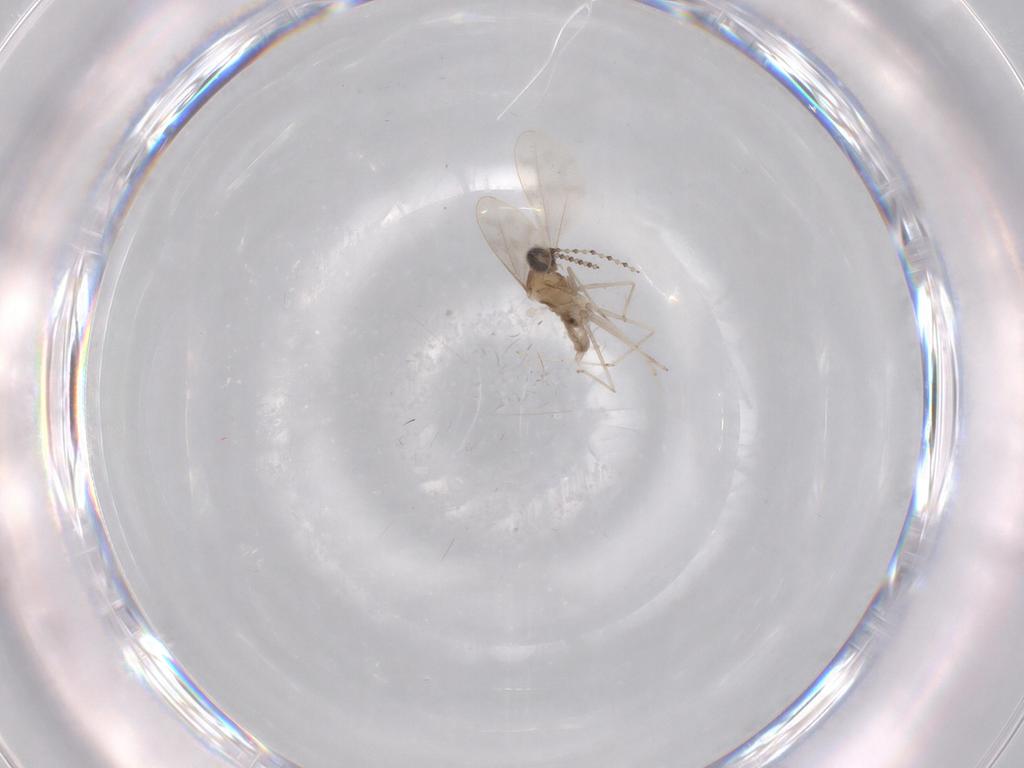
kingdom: Animalia
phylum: Arthropoda
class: Insecta
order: Diptera
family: Cecidomyiidae
